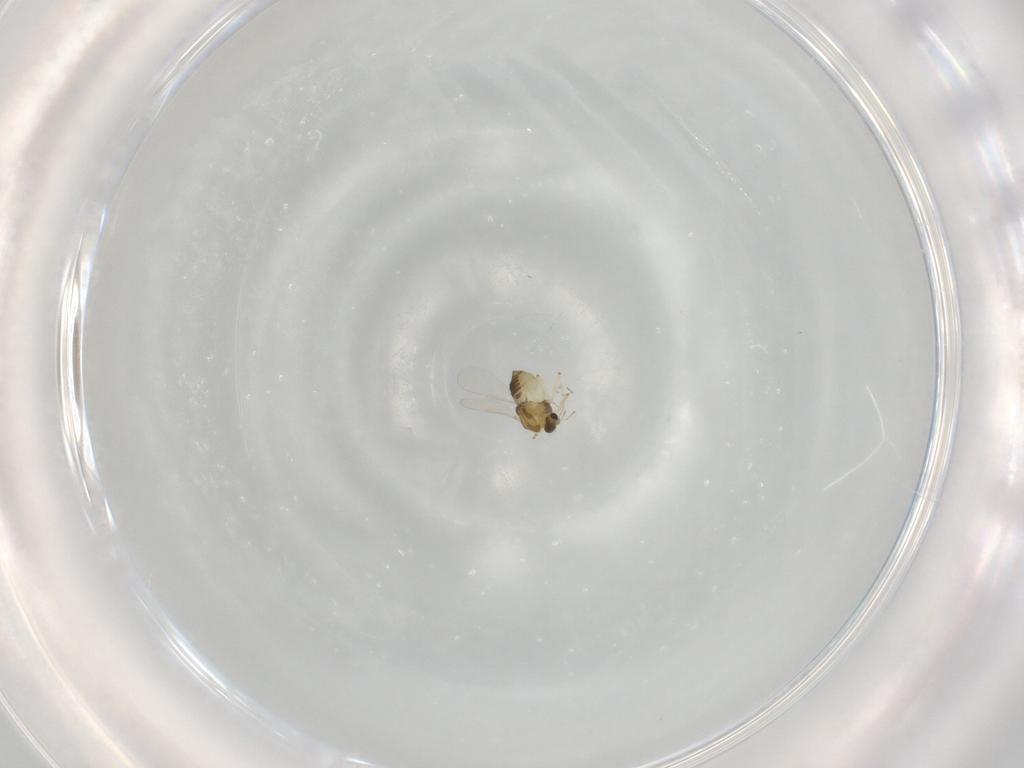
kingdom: Animalia
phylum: Arthropoda
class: Insecta
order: Diptera
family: Chironomidae
